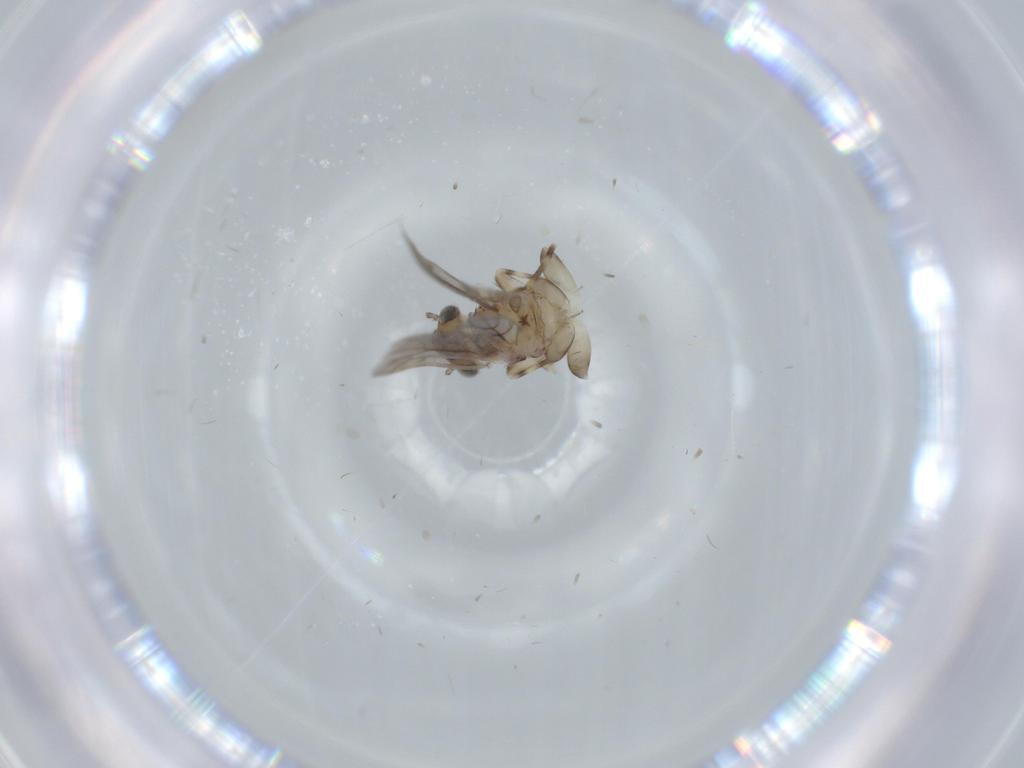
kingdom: Animalia
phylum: Arthropoda
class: Insecta
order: Psocodea
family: Lepidopsocidae
